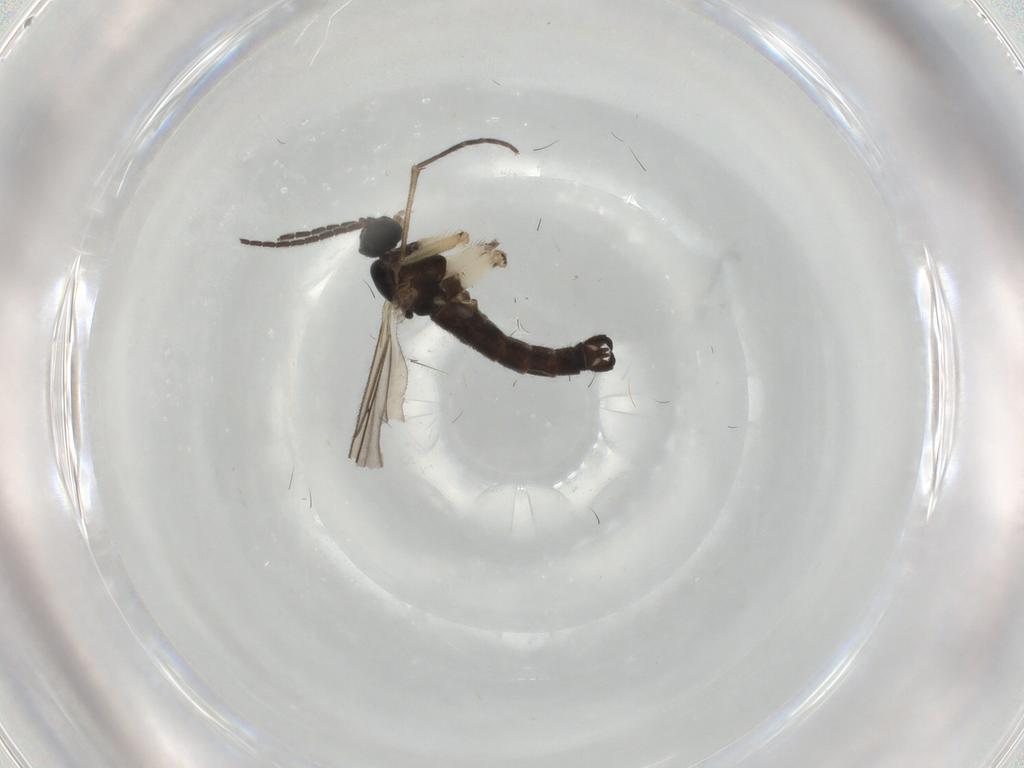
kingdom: Animalia
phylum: Arthropoda
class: Insecta
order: Diptera
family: Sciaridae
